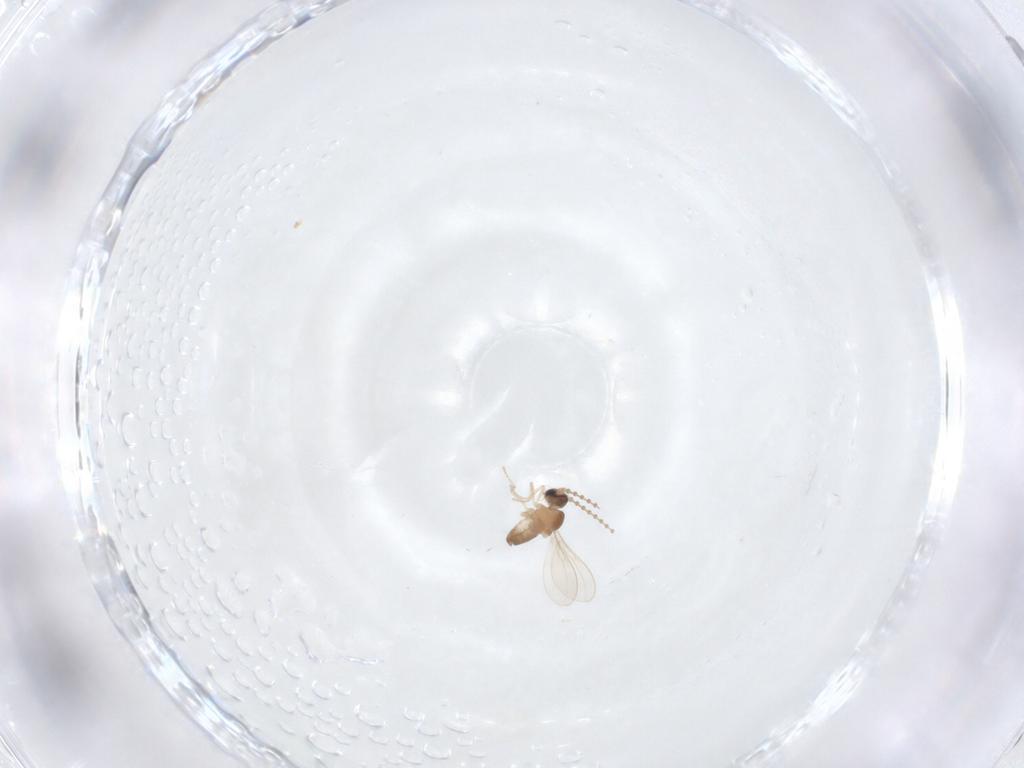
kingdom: Animalia
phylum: Arthropoda
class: Insecta
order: Diptera
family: Cecidomyiidae
